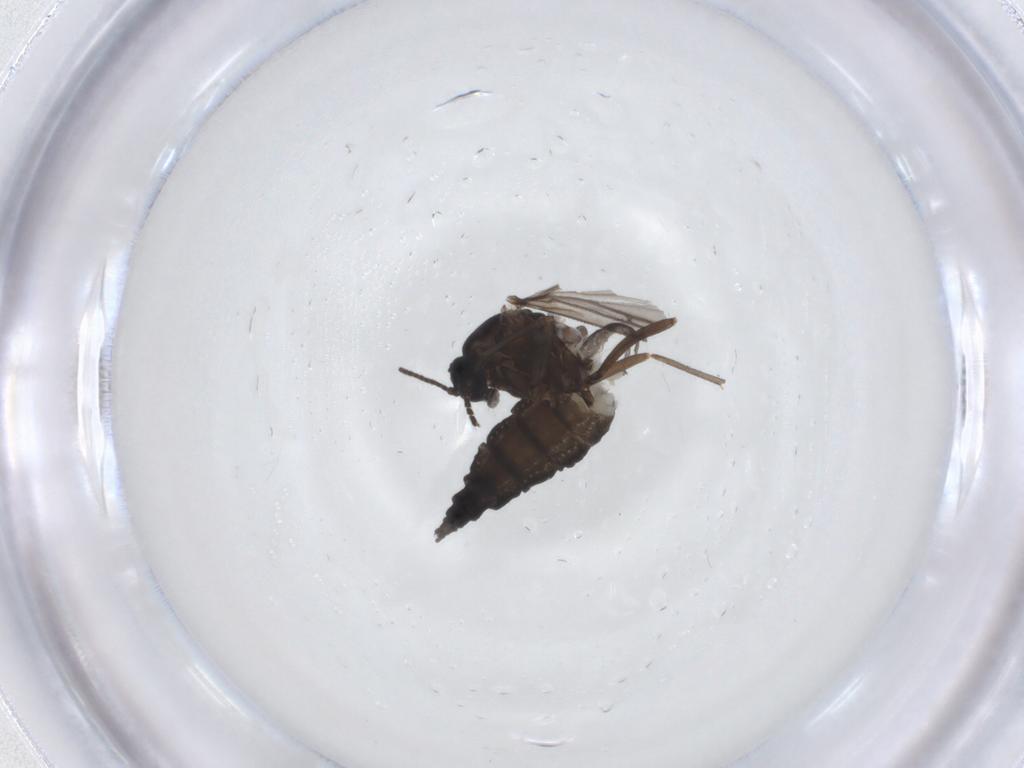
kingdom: Animalia
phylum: Arthropoda
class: Insecta
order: Diptera
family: Sciaridae
